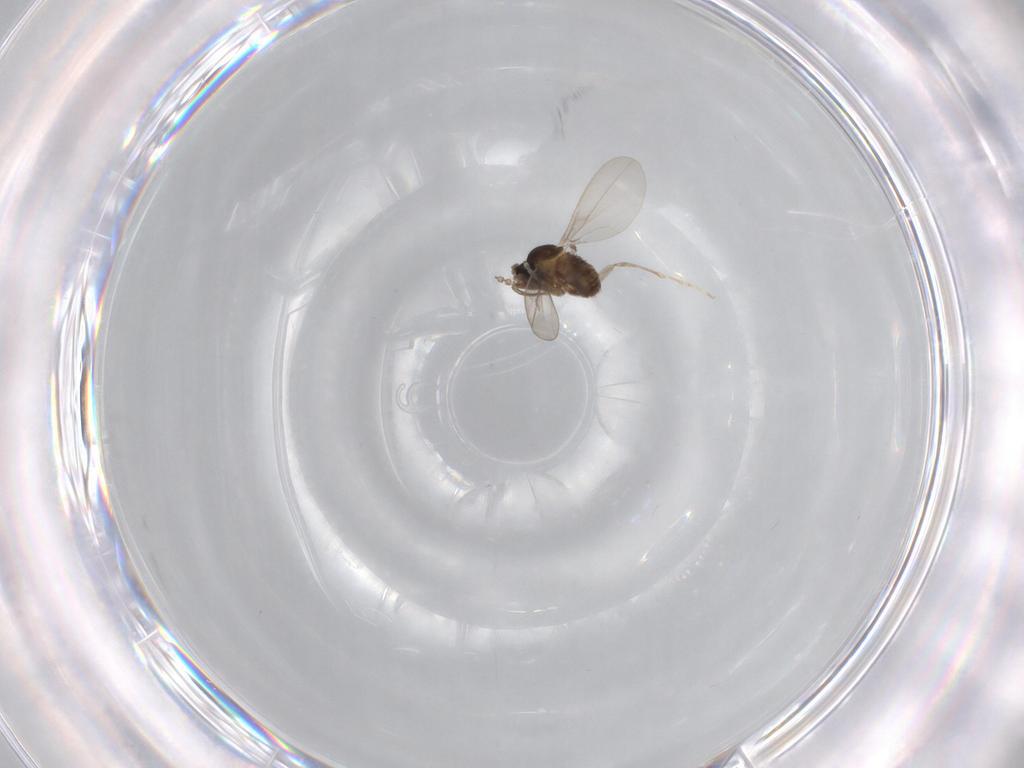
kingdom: Animalia
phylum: Arthropoda
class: Insecta
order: Diptera
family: Cecidomyiidae
